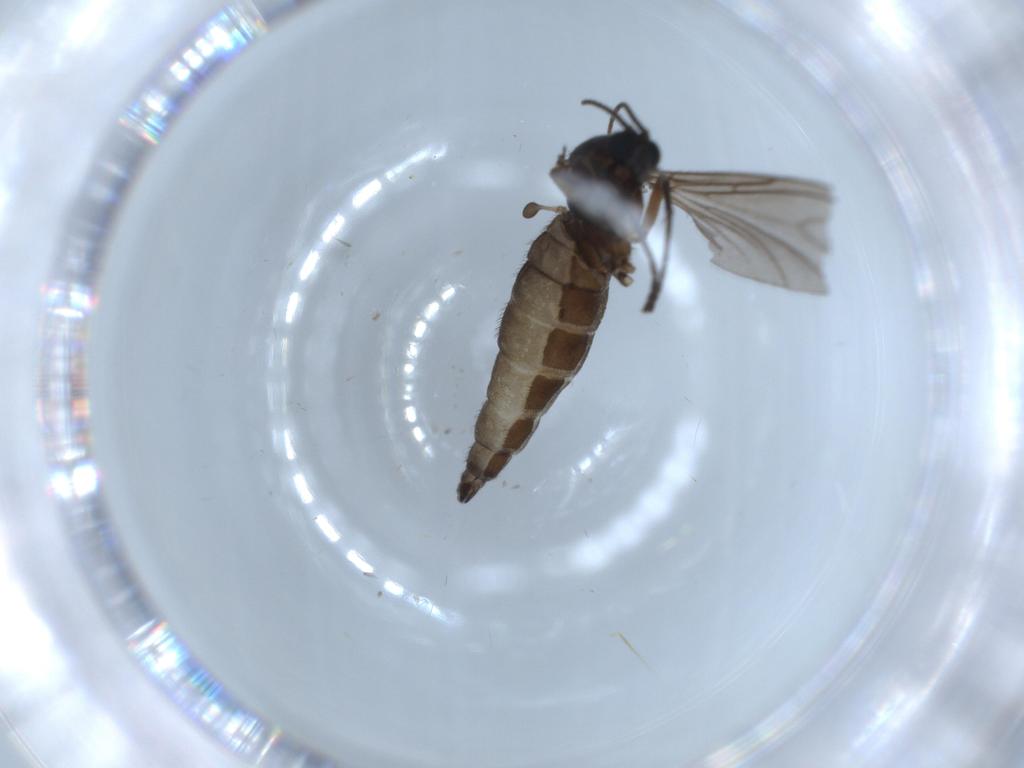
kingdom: Animalia
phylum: Arthropoda
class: Insecta
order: Diptera
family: Sciaridae
